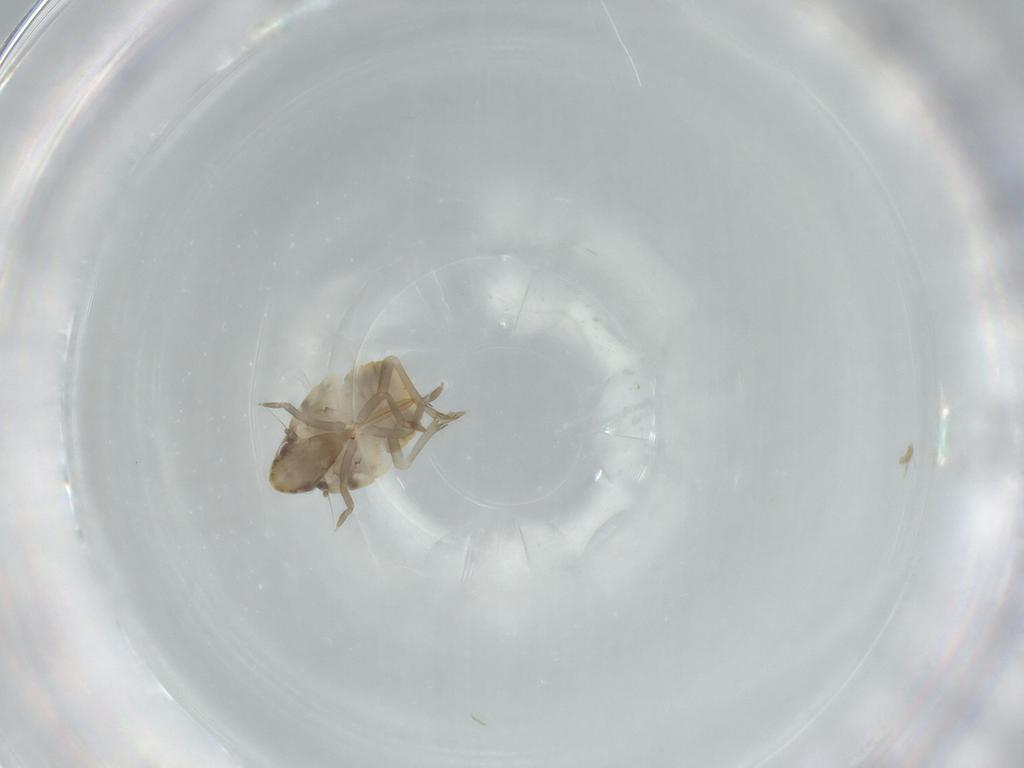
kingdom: Animalia
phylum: Arthropoda
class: Insecta
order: Hemiptera
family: Flatidae
